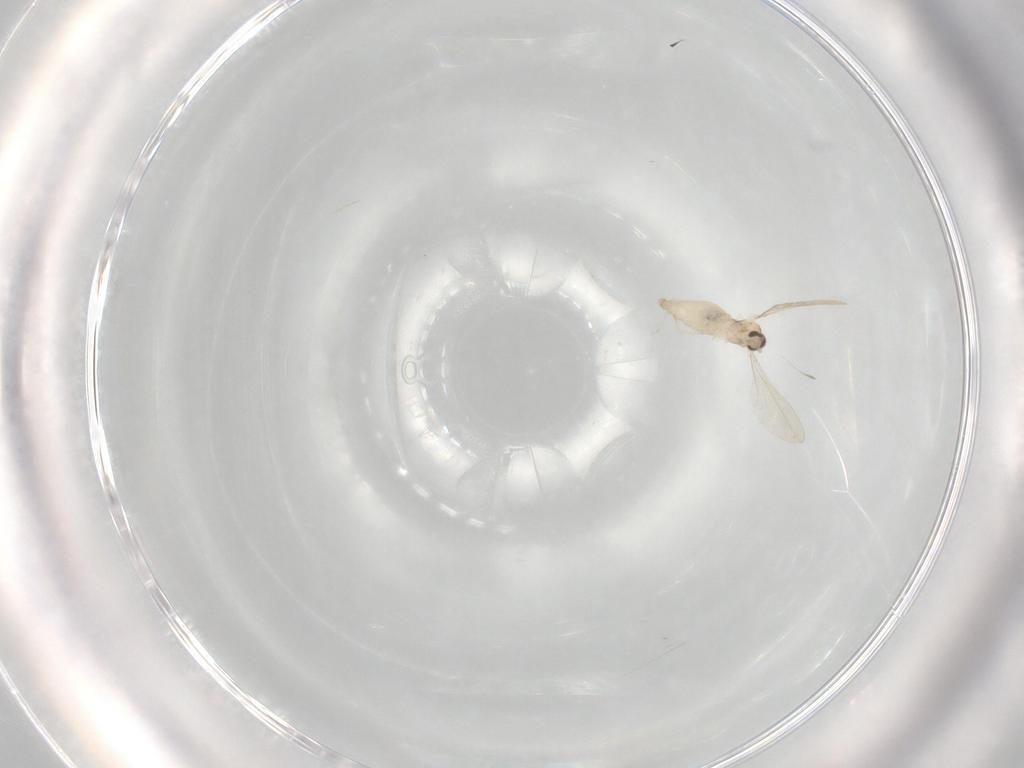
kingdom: Animalia
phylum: Arthropoda
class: Insecta
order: Diptera
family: Cecidomyiidae
